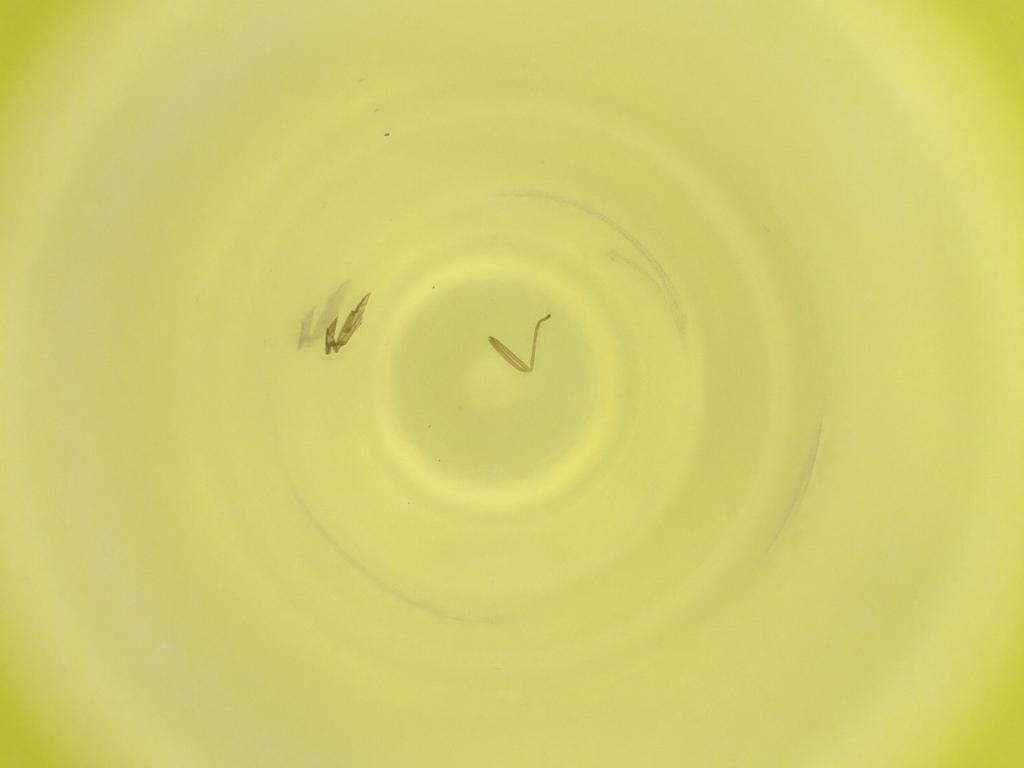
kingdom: Animalia
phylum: Arthropoda
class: Insecta
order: Diptera
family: Cecidomyiidae
